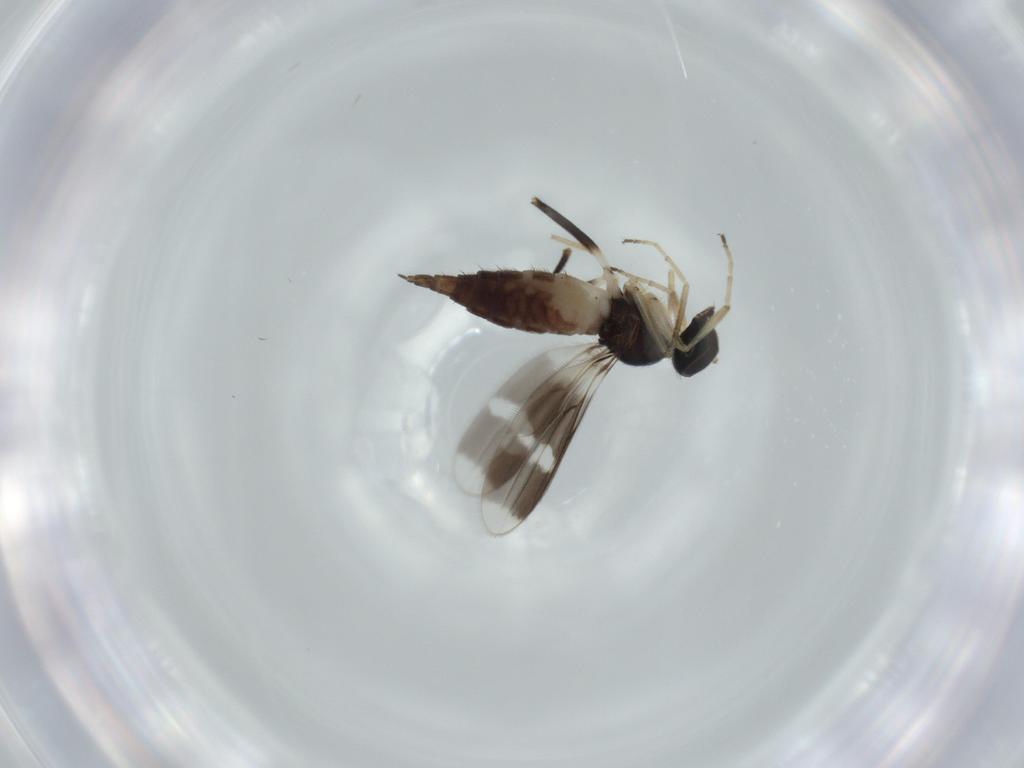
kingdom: Animalia
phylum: Arthropoda
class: Insecta
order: Diptera
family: Hybotidae
